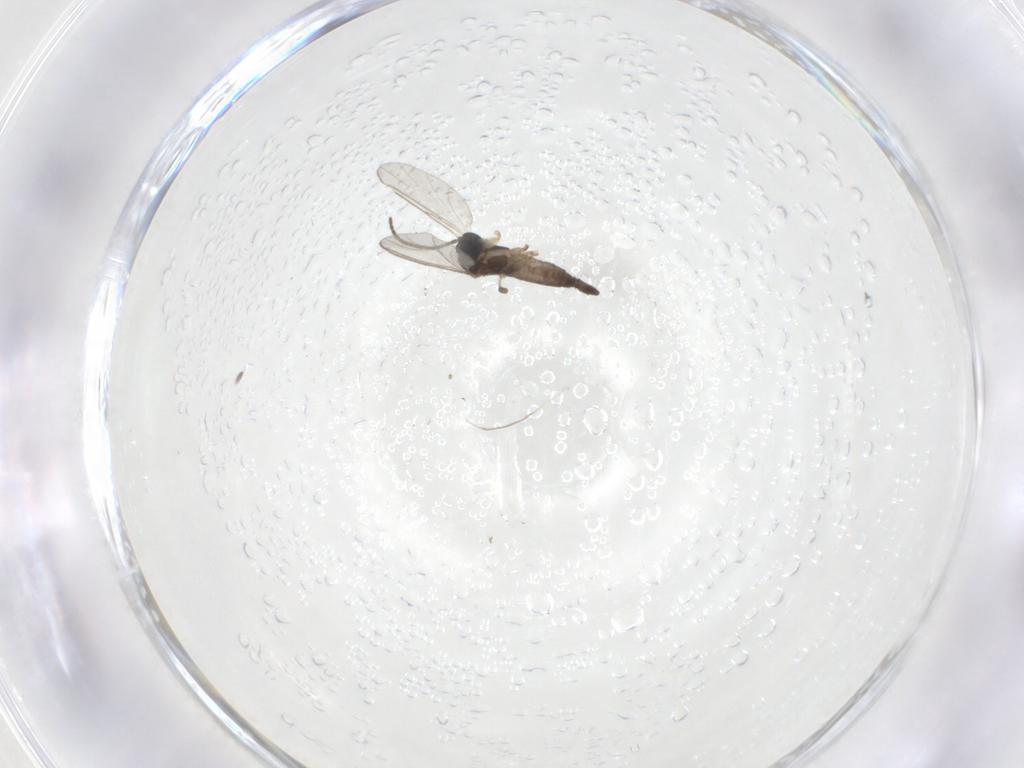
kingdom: Animalia
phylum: Arthropoda
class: Insecta
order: Diptera
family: Sciaridae
